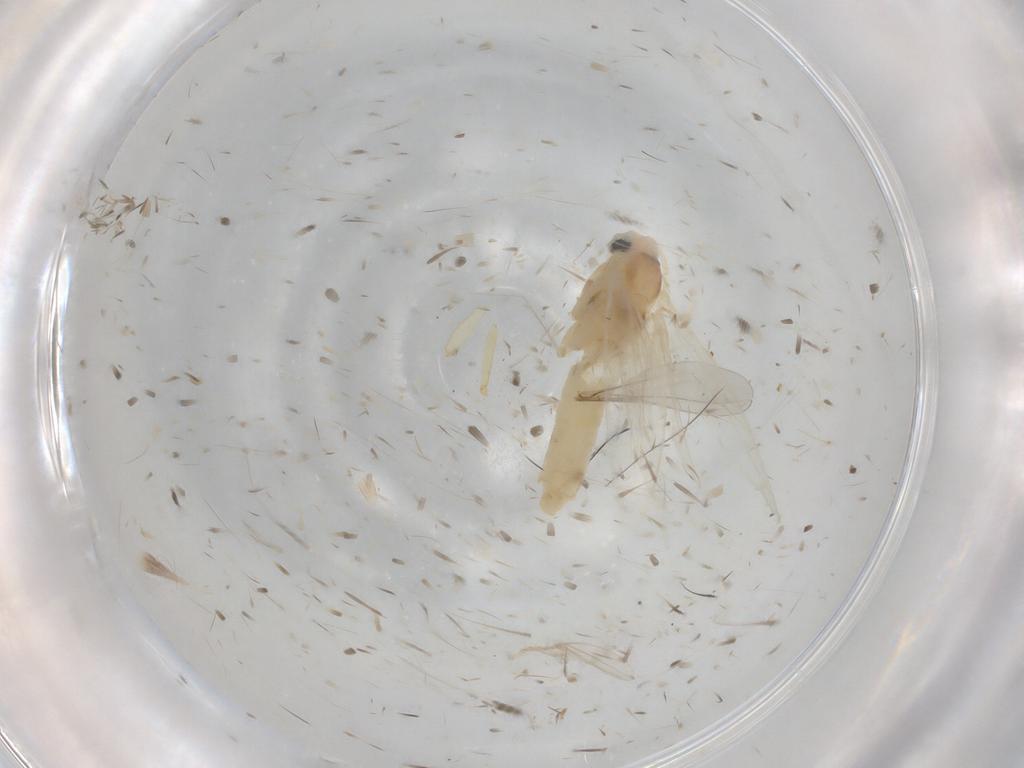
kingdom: Animalia
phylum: Arthropoda
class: Insecta
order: Lepidoptera
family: Bucculatricidae
